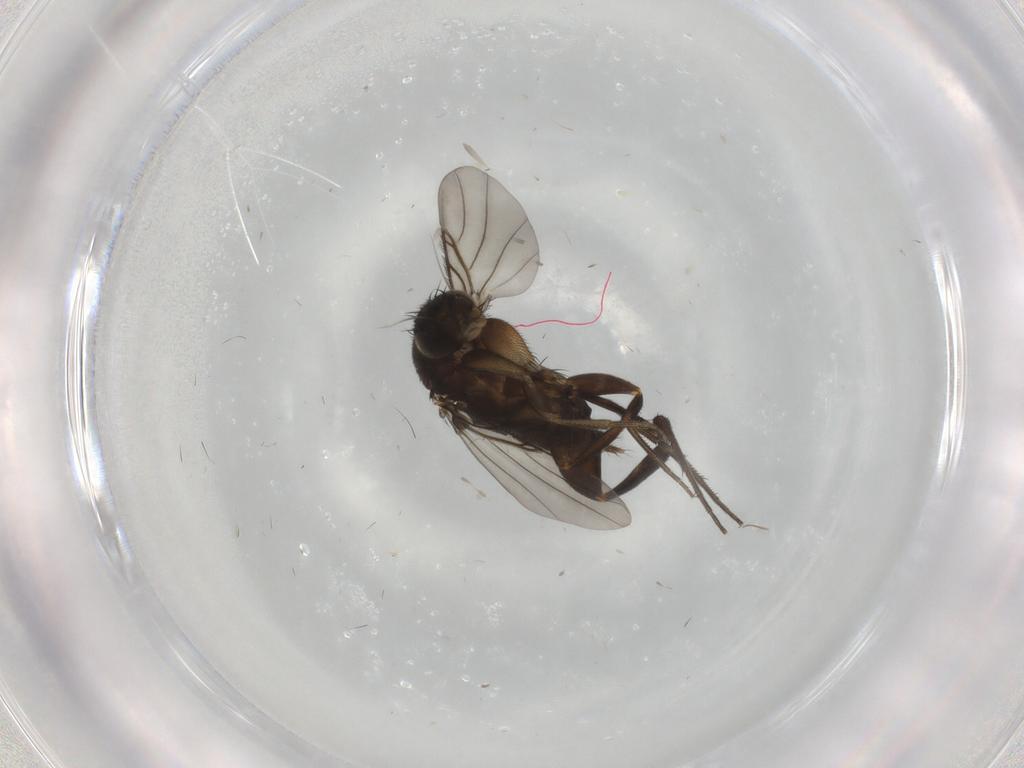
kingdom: Animalia
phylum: Arthropoda
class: Insecta
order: Diptera
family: Phoridae
